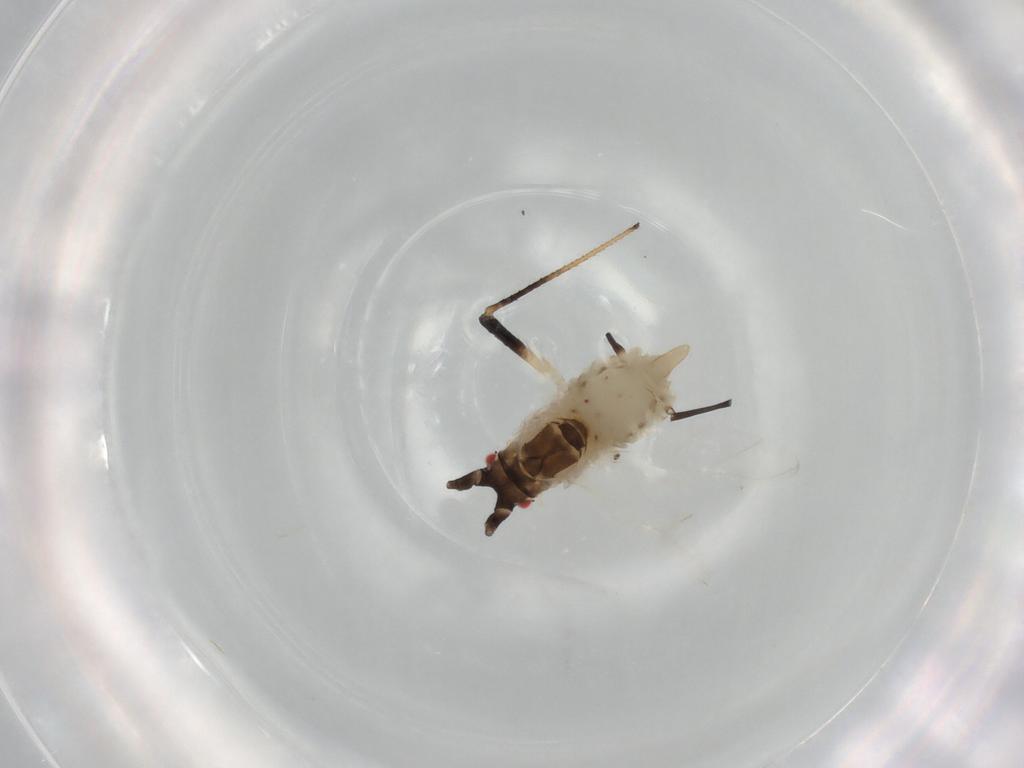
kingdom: Animalia
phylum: Arthropoda
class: Insecta
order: Hemiptera
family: Aphididae
